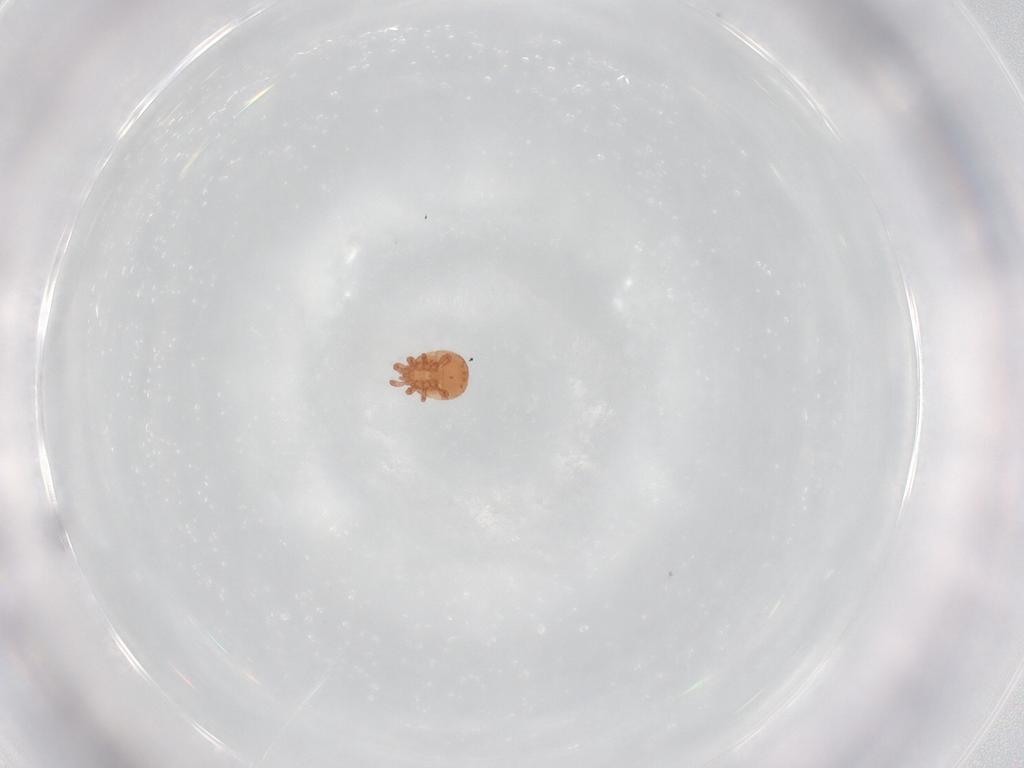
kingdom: Animalia
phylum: Arthropoda
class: Arachnida
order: Mesostigmata
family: Zerconidae
